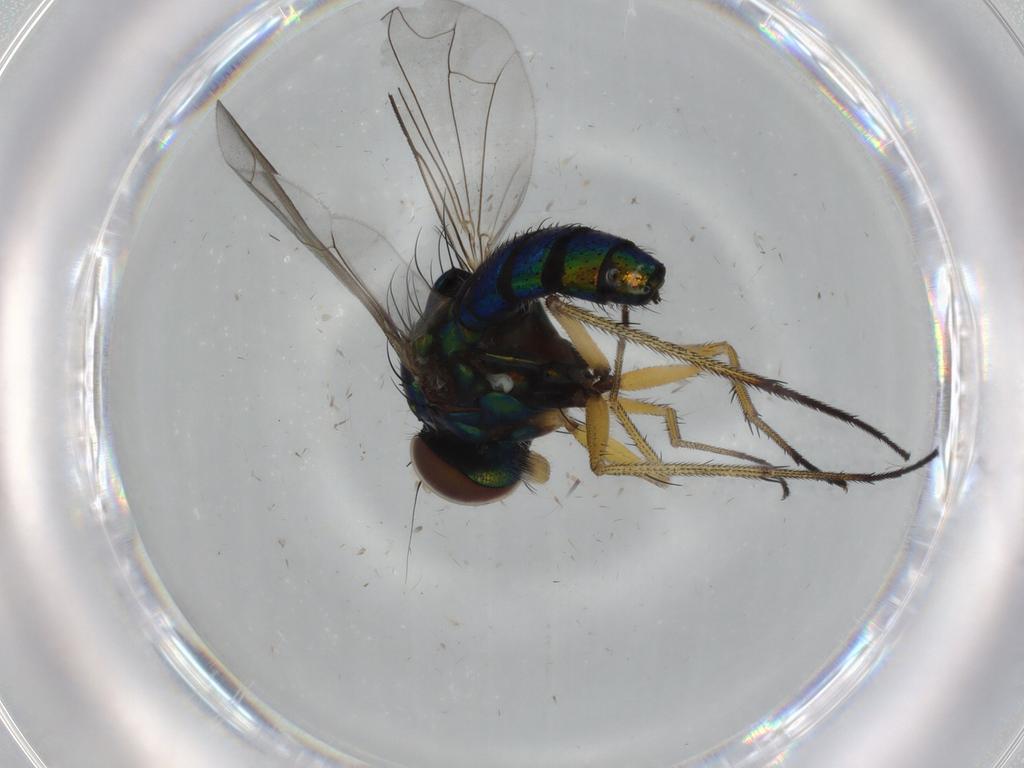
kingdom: Animalia
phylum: Arthropoda
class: Insecta
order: Diptera
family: Dolichopodidae
